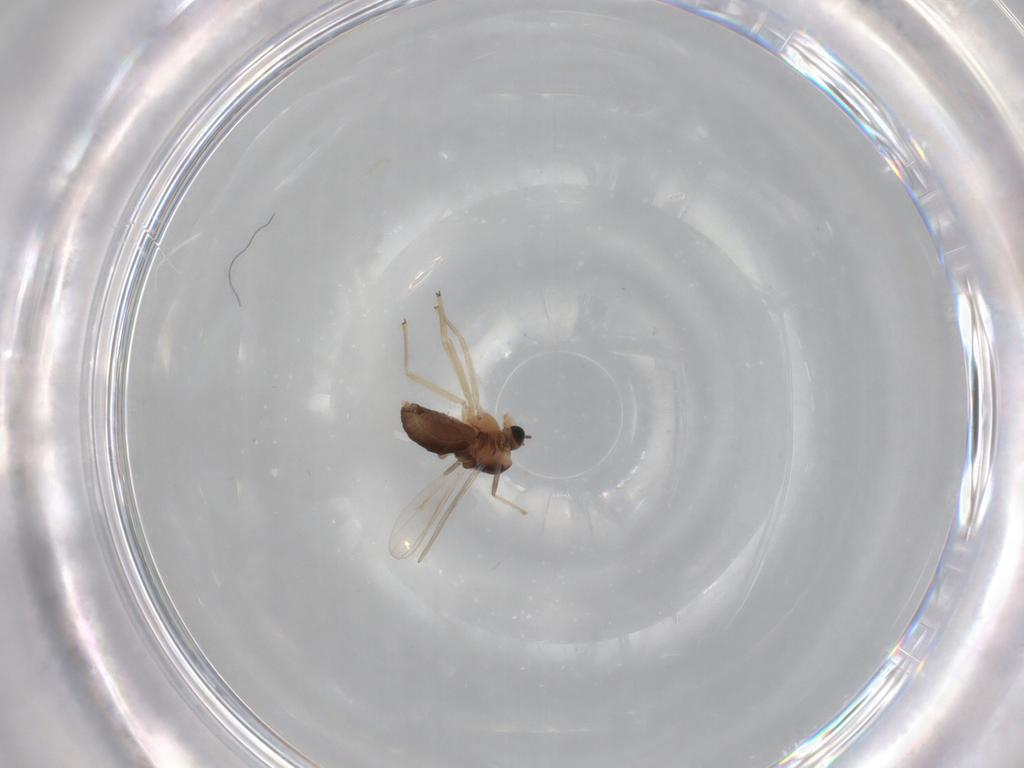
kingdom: Animalia
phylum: Arthropoda
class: Insecta
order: Diptera
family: Chironomidae
